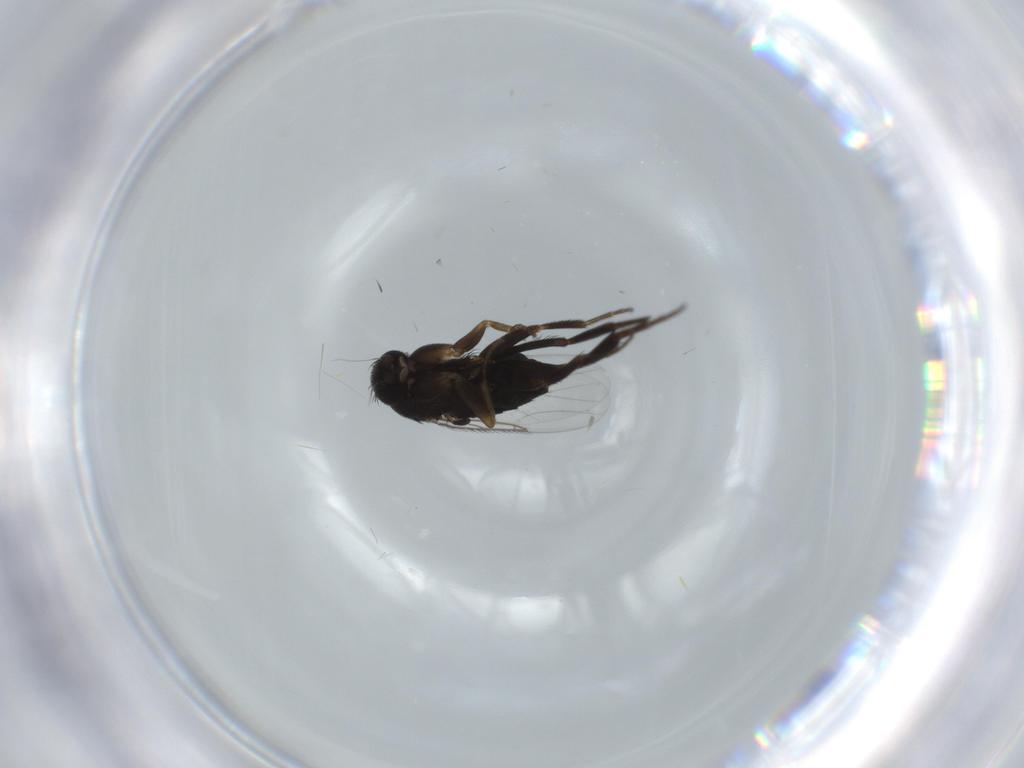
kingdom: Animalia
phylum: Arthropoda
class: Insecta
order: Diptera
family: Phoridae
